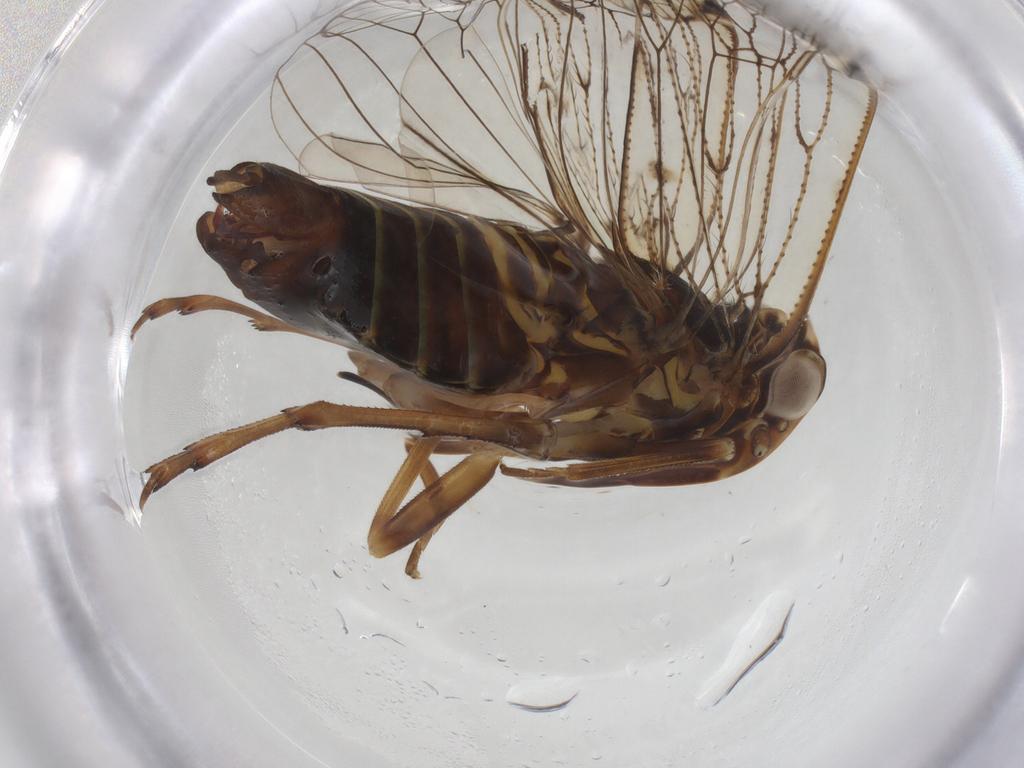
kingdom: Animalia
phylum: Arthropoda
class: Insecta
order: Hemiptera
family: Cixiidae
